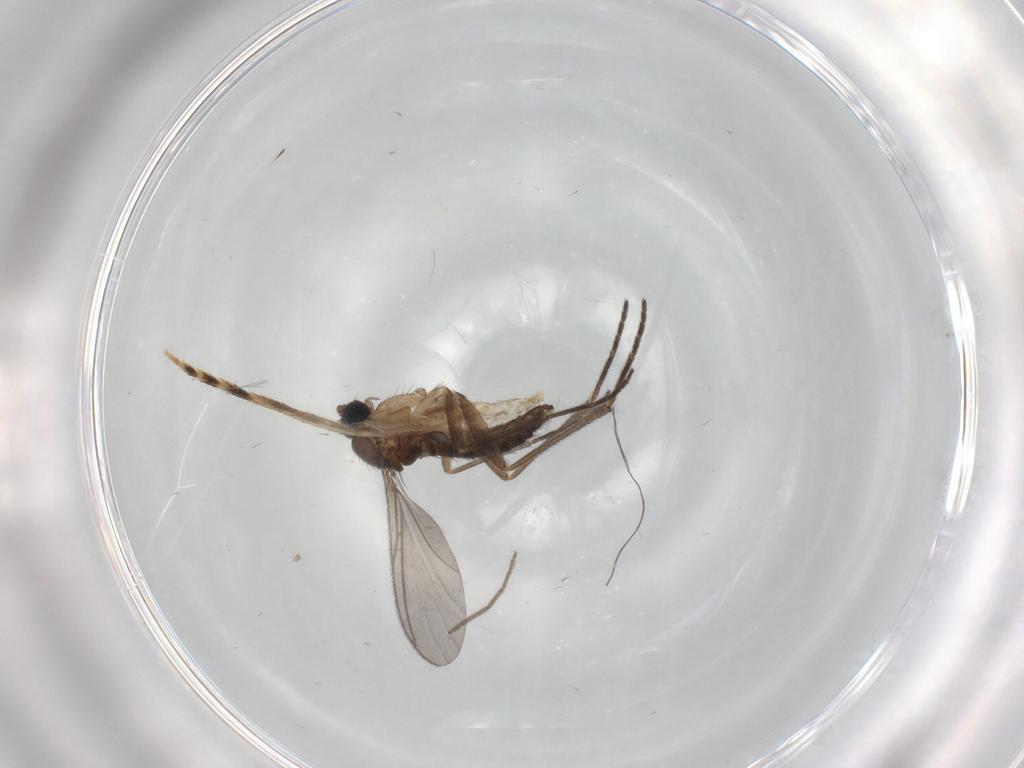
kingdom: Animalia
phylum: Arthropoda
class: Insecta
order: Diptera
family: Sciaridae
